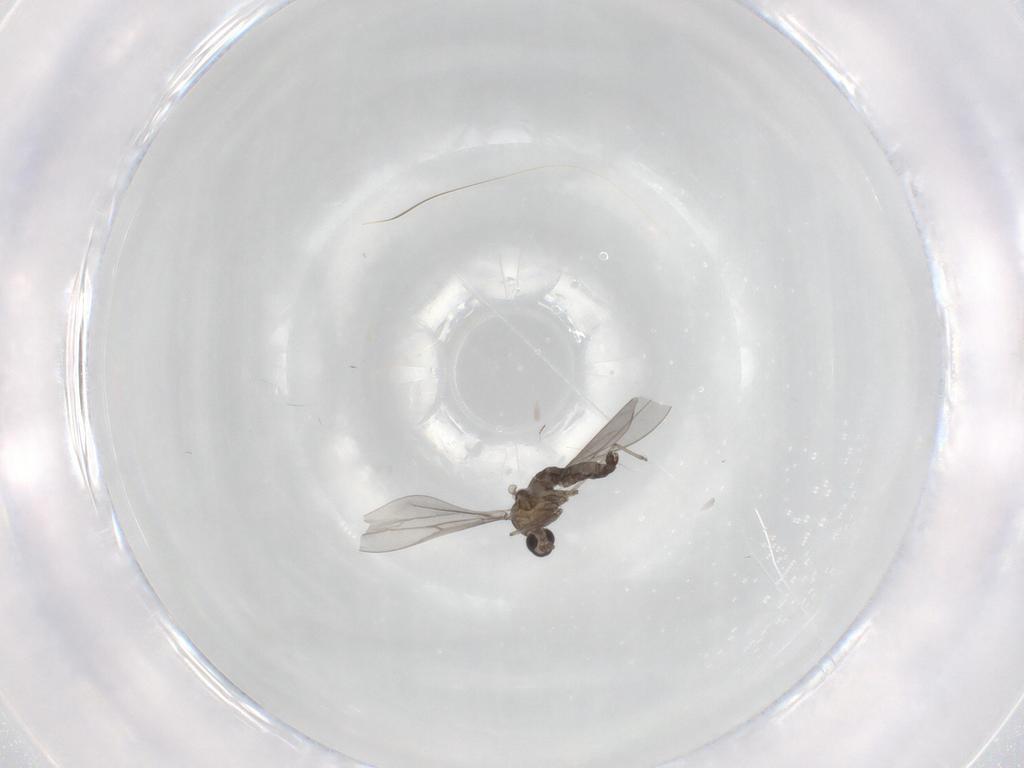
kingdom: Animalia
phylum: Arthropoda
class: Insecta
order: Diptera
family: Cecidomyiidae
